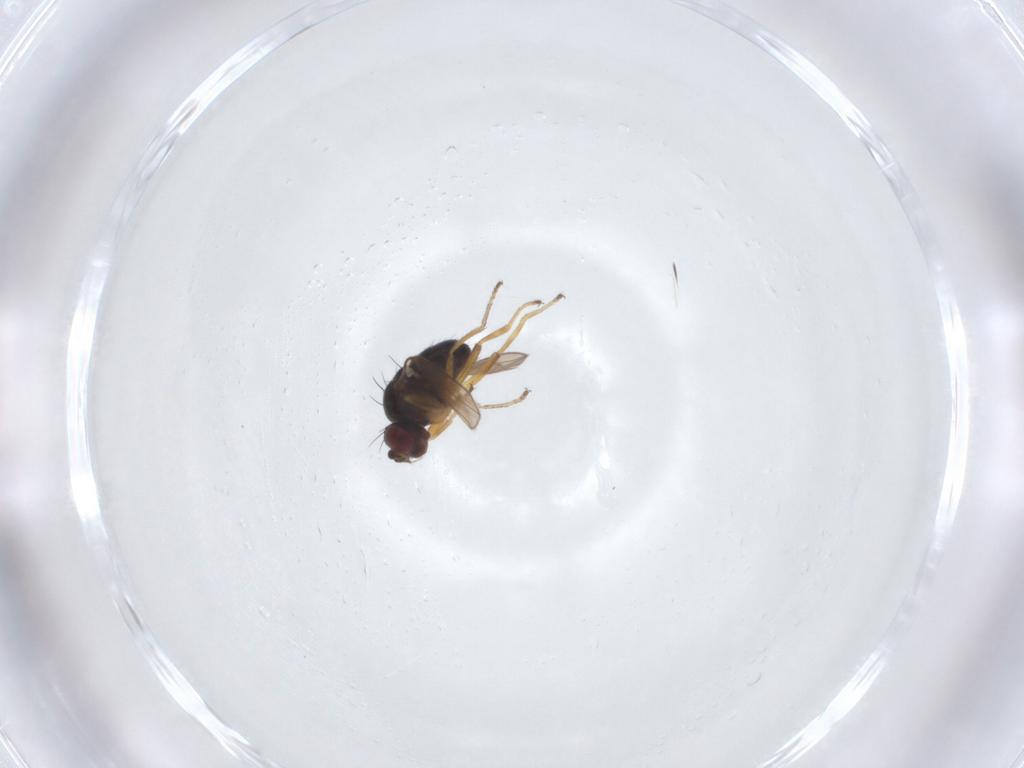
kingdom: Animalia
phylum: Arthropoda
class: Insecta
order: Diptera
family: Ephydridae
